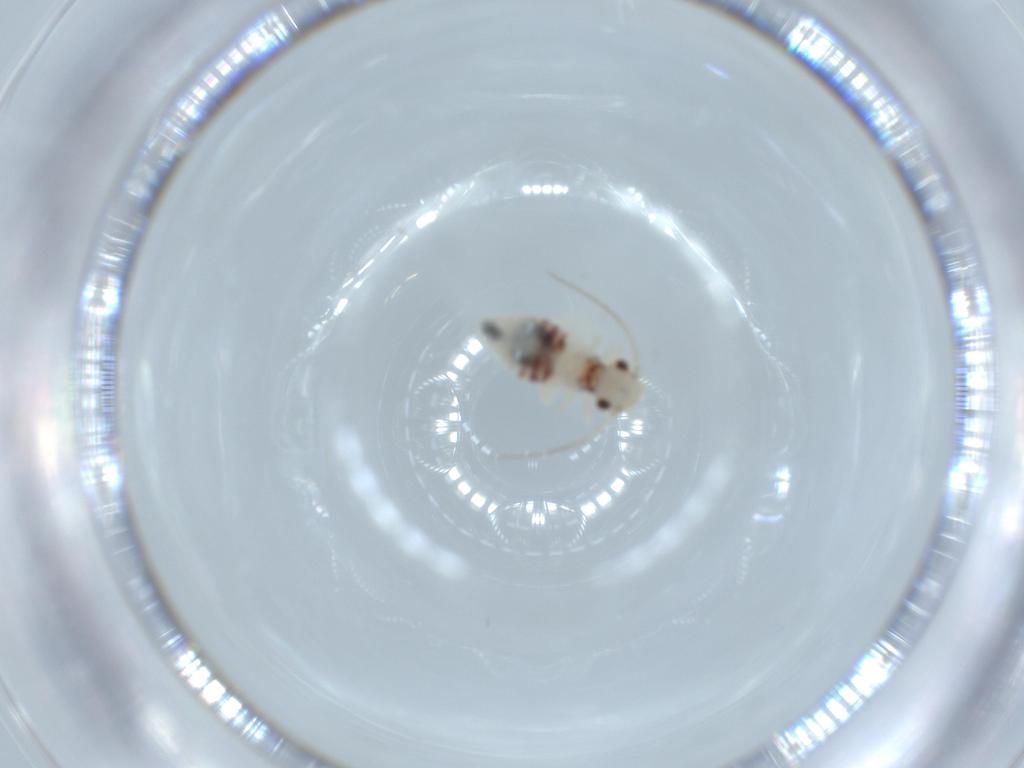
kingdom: Animalia
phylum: Arthropoda
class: Insecta
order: Psocodea
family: Caeciliusidae
